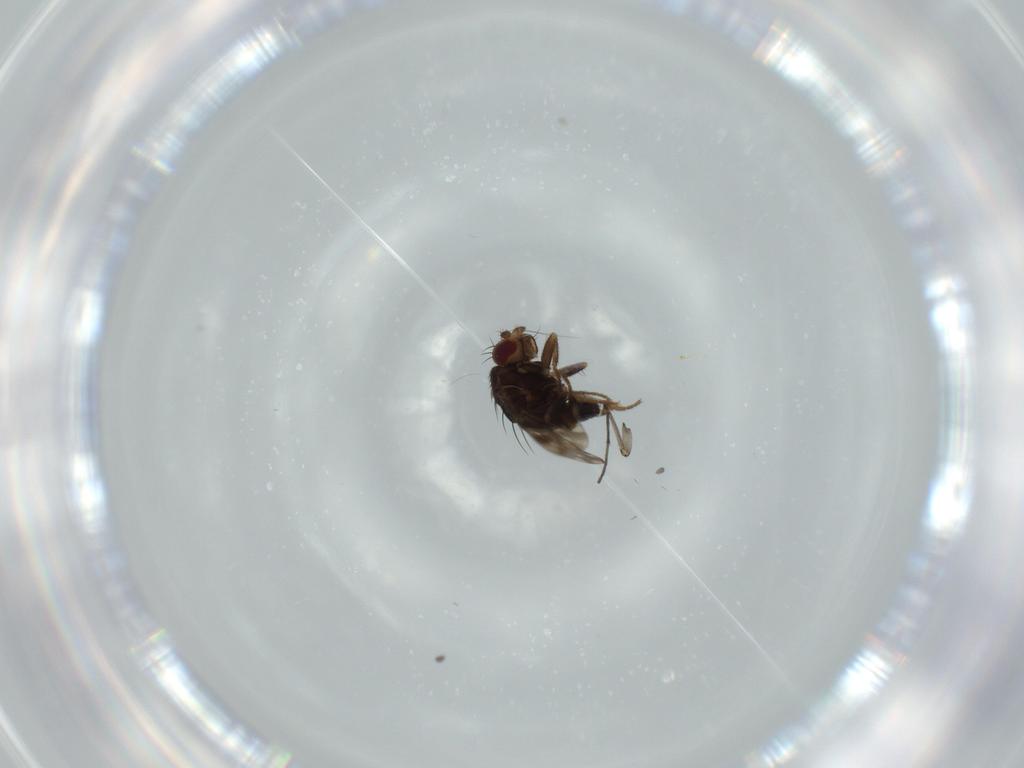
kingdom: Animalia
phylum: Arthropoda
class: Insecta
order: Diptera
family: Sphaeroceridae
